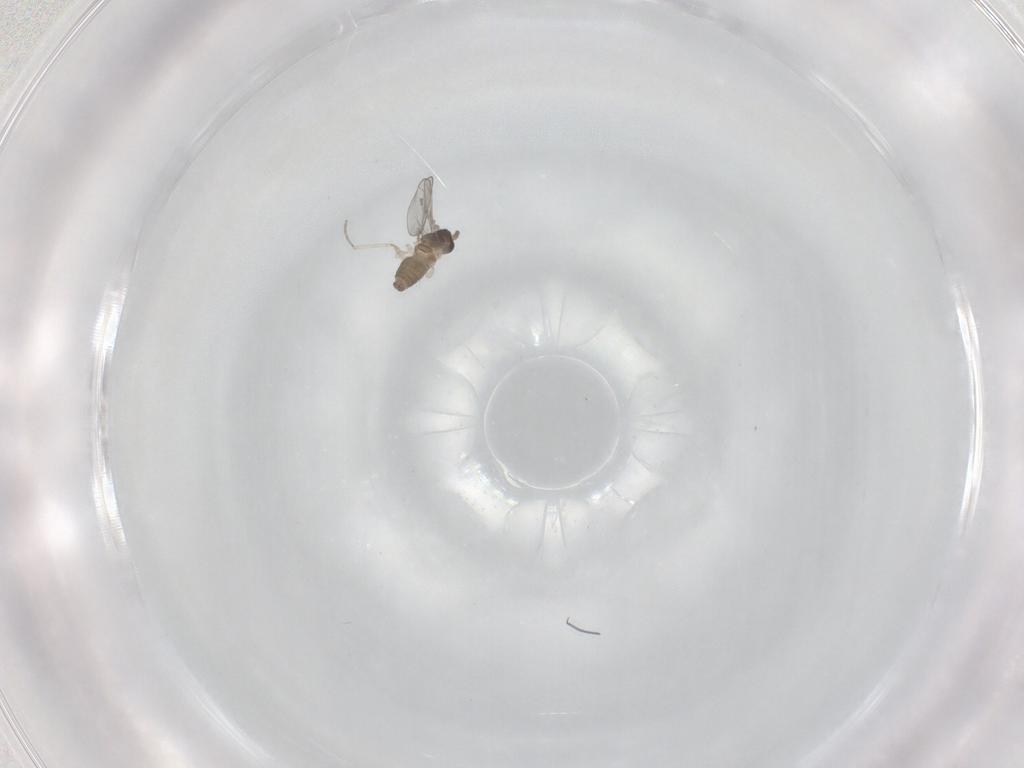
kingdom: Animalia
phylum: Arthropoda
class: Insecta
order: Diptera
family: Cecidomyiidae
